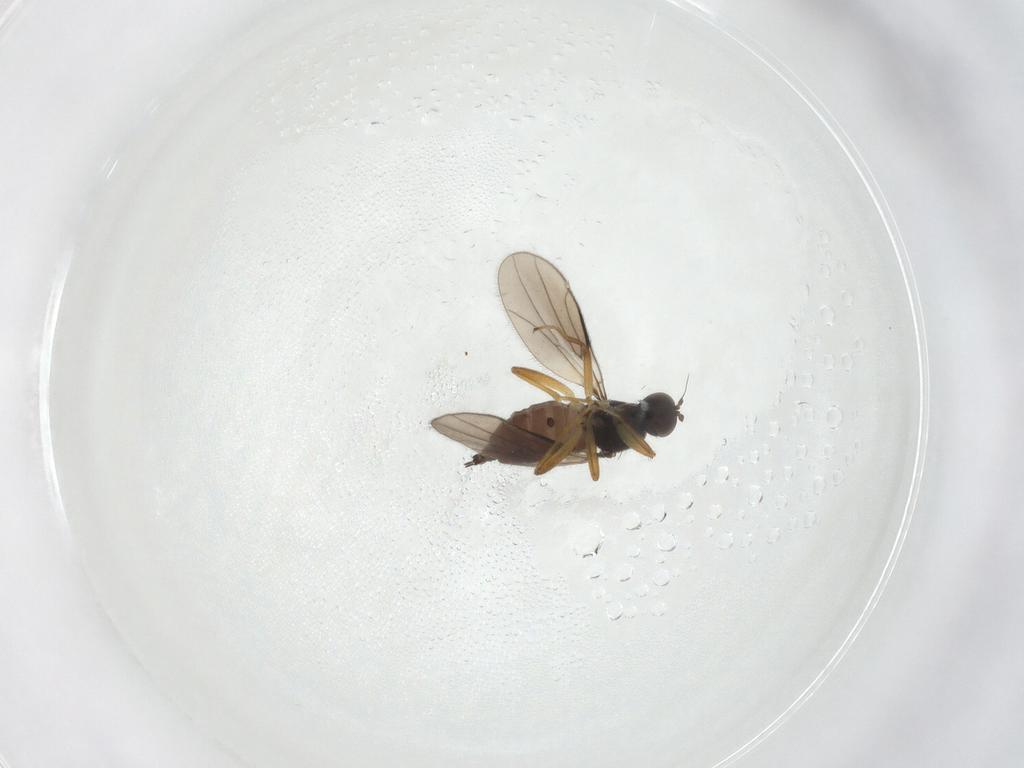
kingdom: Animalia
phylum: Arthropoda
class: Insecta
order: Diptera
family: Hybotidae
